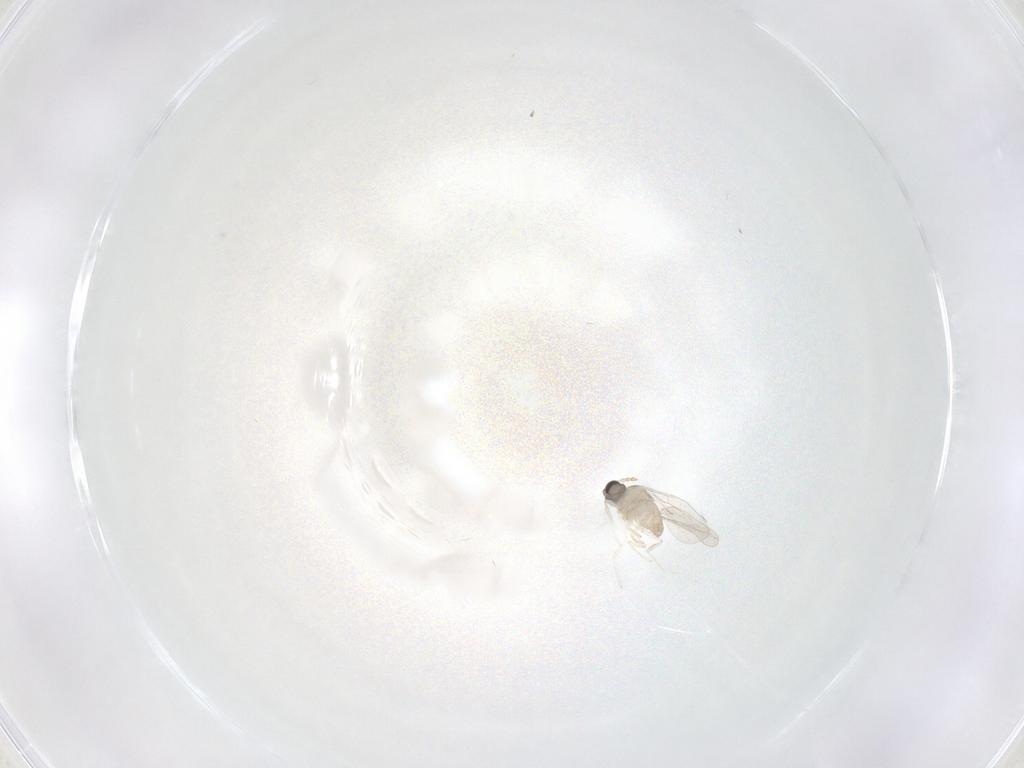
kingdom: Animalia
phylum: Arthropoda
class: Insecta
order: Diptera
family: Cecidomyiidae
